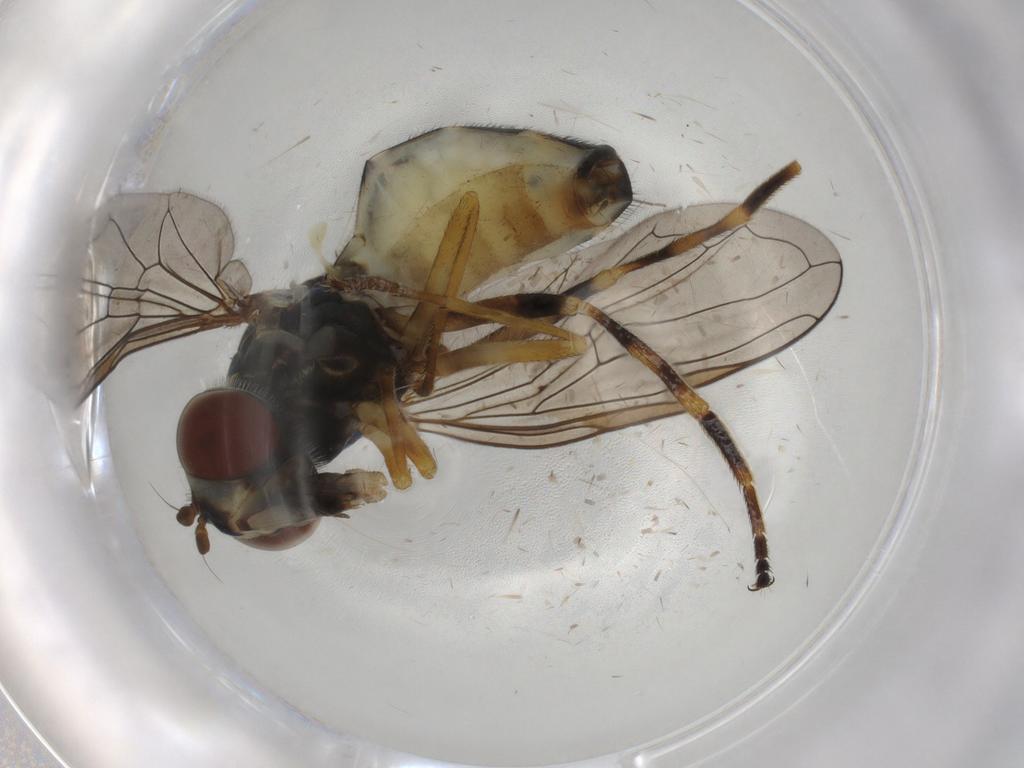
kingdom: Animalia
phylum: Arthropoda
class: Insecta
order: Diptera
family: Syrphidae
